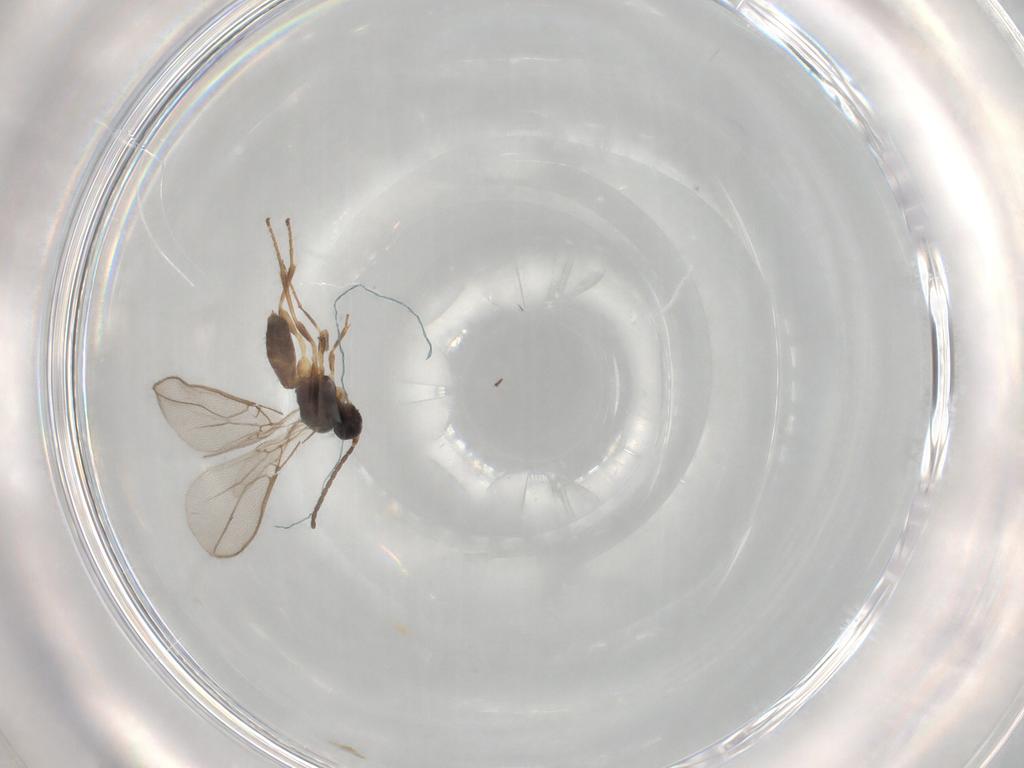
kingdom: Animalia
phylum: Arthropoda
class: Insecta
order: Hymenoptera
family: Braconidae
